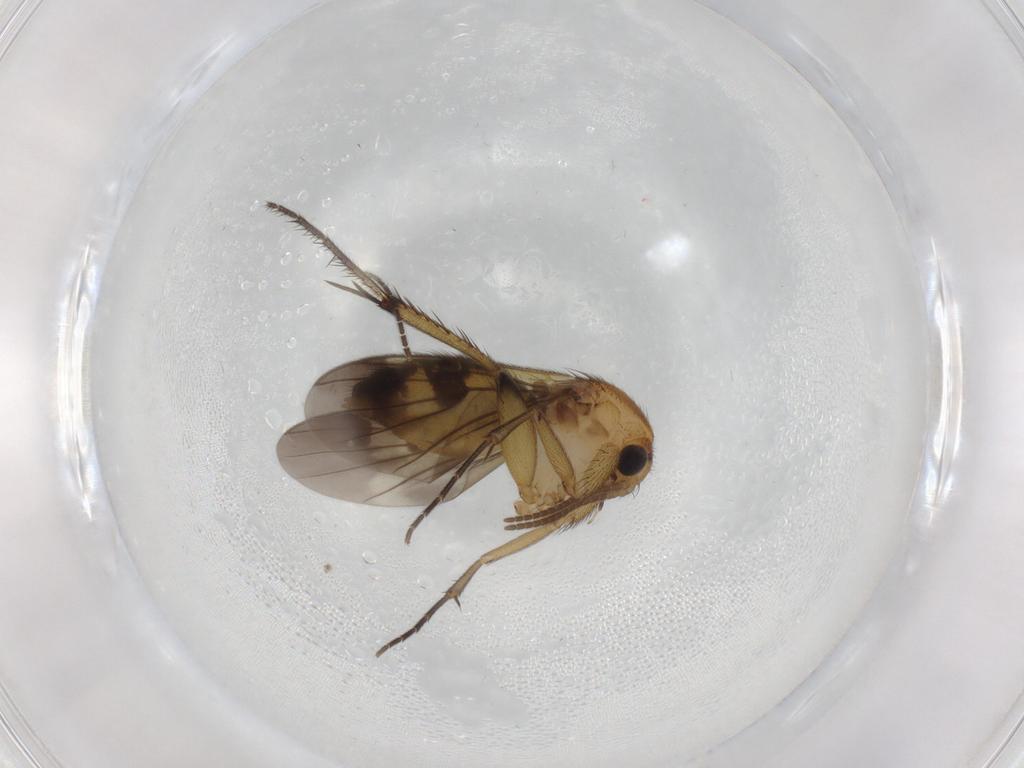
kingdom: Animalia
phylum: Arthropoda
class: Insecta
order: Diptera
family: Mycetophilidae
